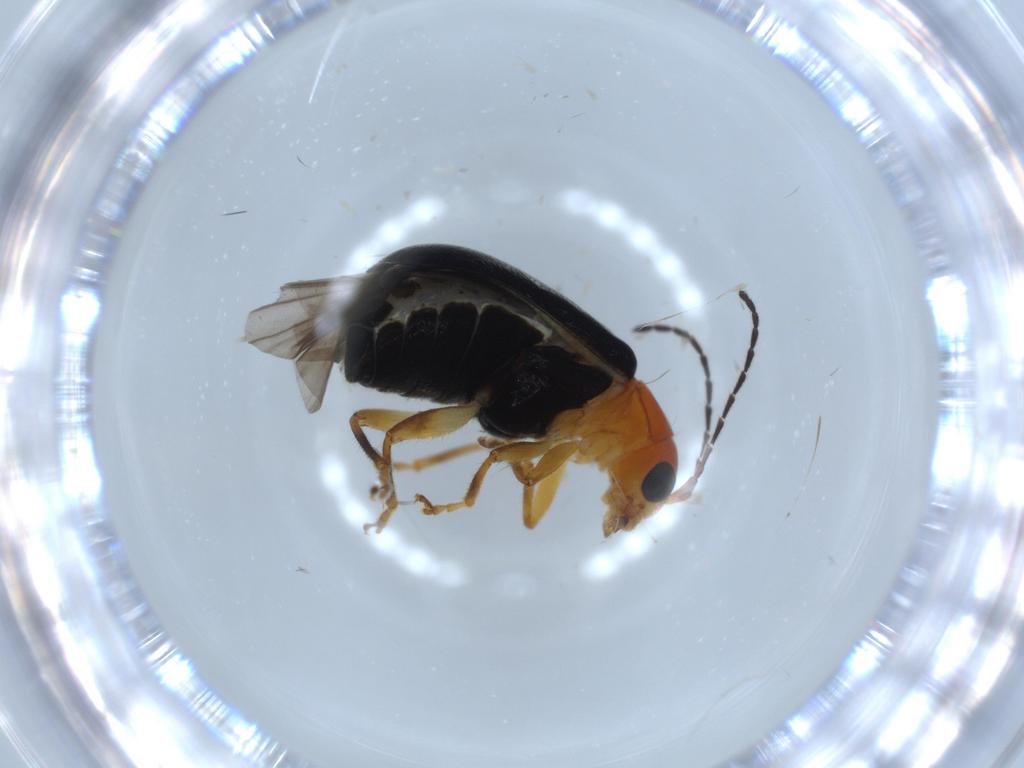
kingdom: Animalia
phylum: Arthropoda
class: Insecta
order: Coleoptera
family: Chrysomelidae
